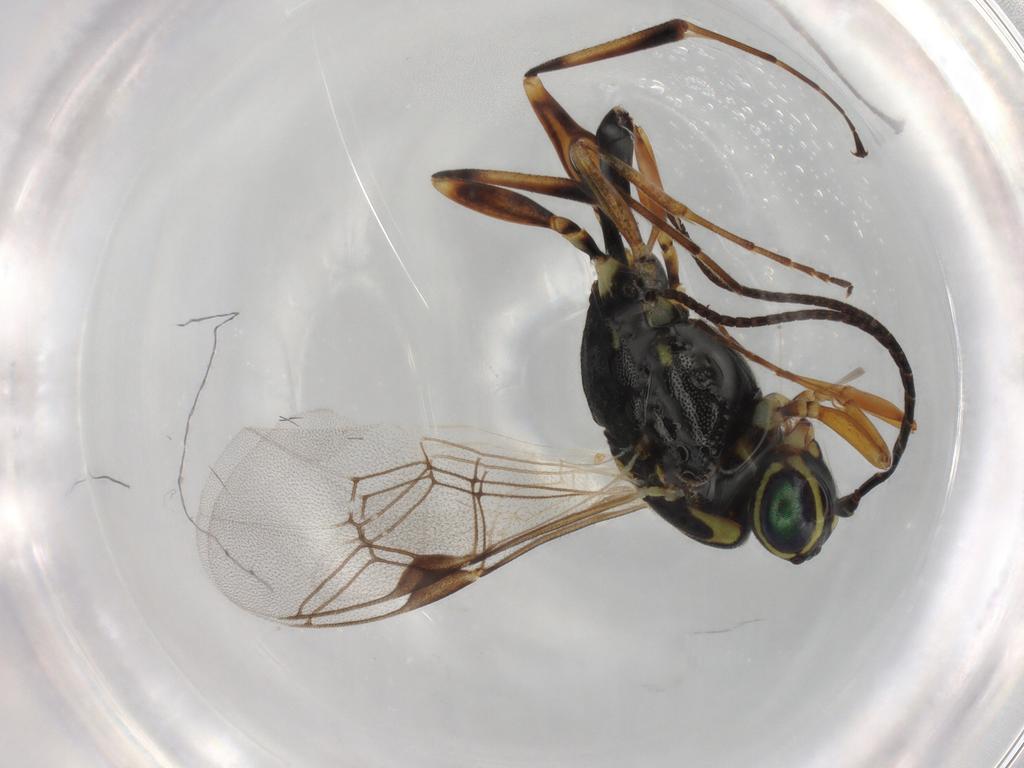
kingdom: Animalia
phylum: Arthropoda
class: Insecta
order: Hymenoptera
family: Ichneumonidae
